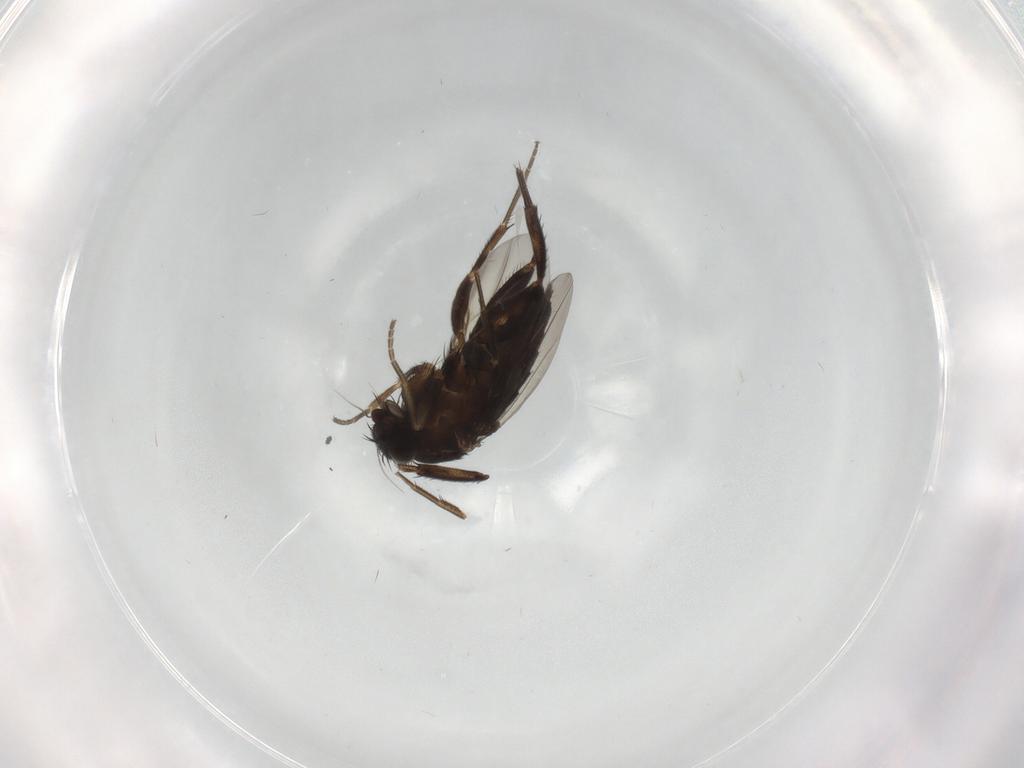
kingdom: Animalia
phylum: Arthropoda
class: Insecta
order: Diptera
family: Phoridae
